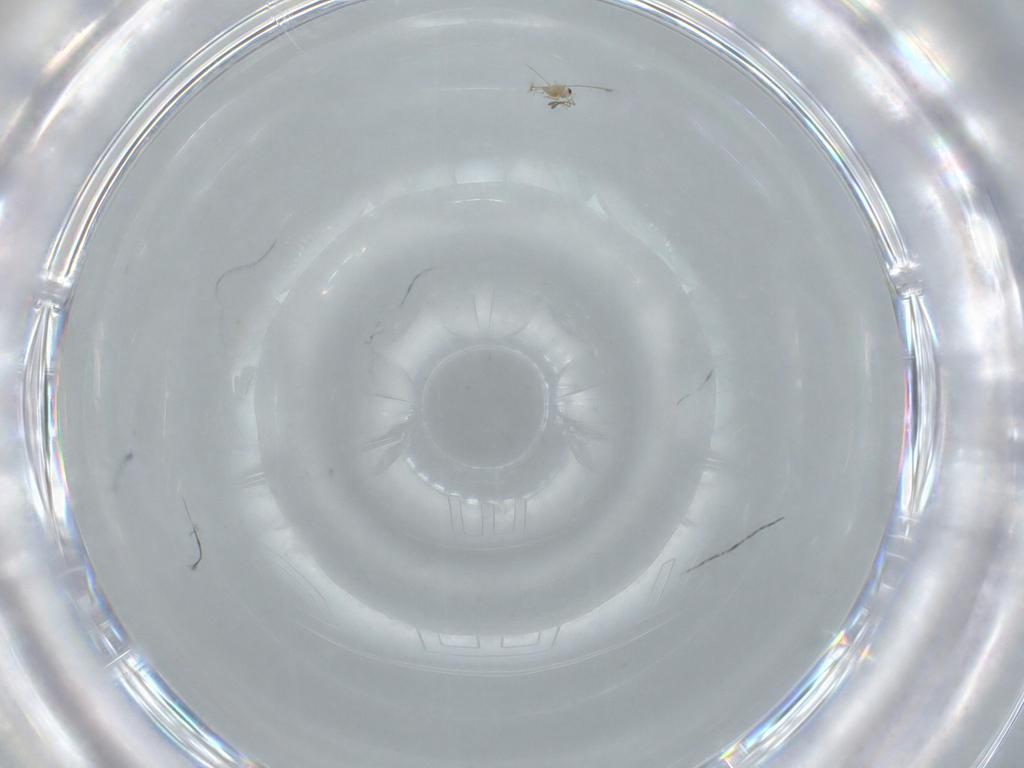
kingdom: Animalia
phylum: Arthropoda
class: Insecta
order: Hymenoptera
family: Mymaridae
